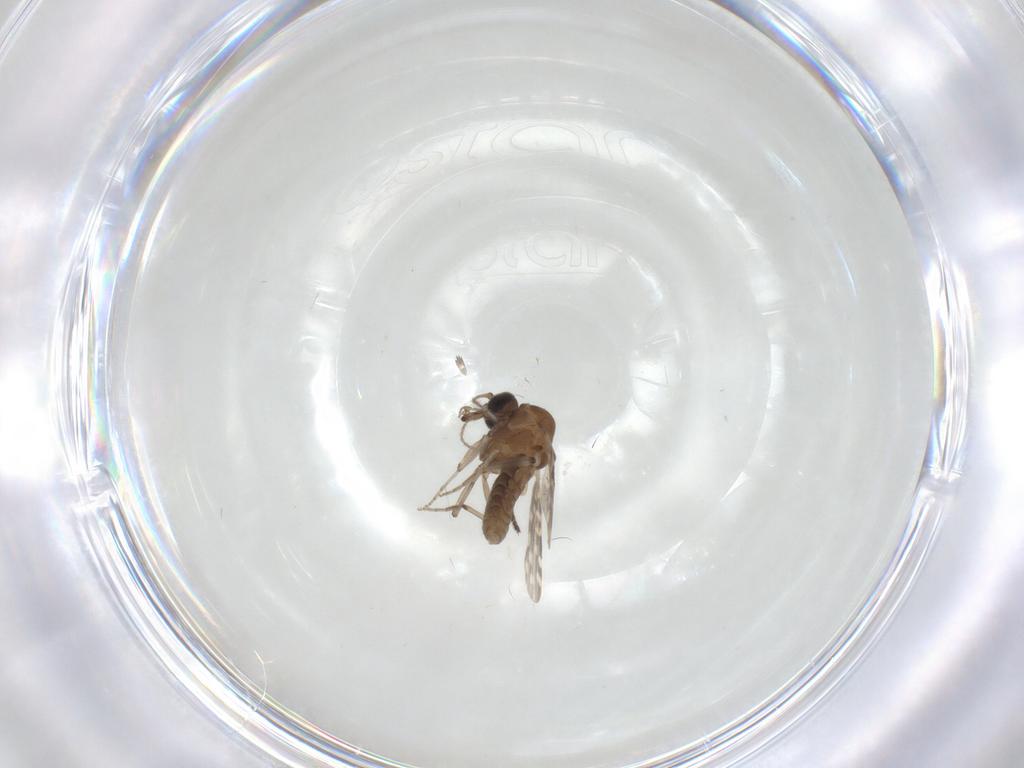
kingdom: Animalia
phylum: Arthropoda
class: Insecta
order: Diptera
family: Sciaridae
